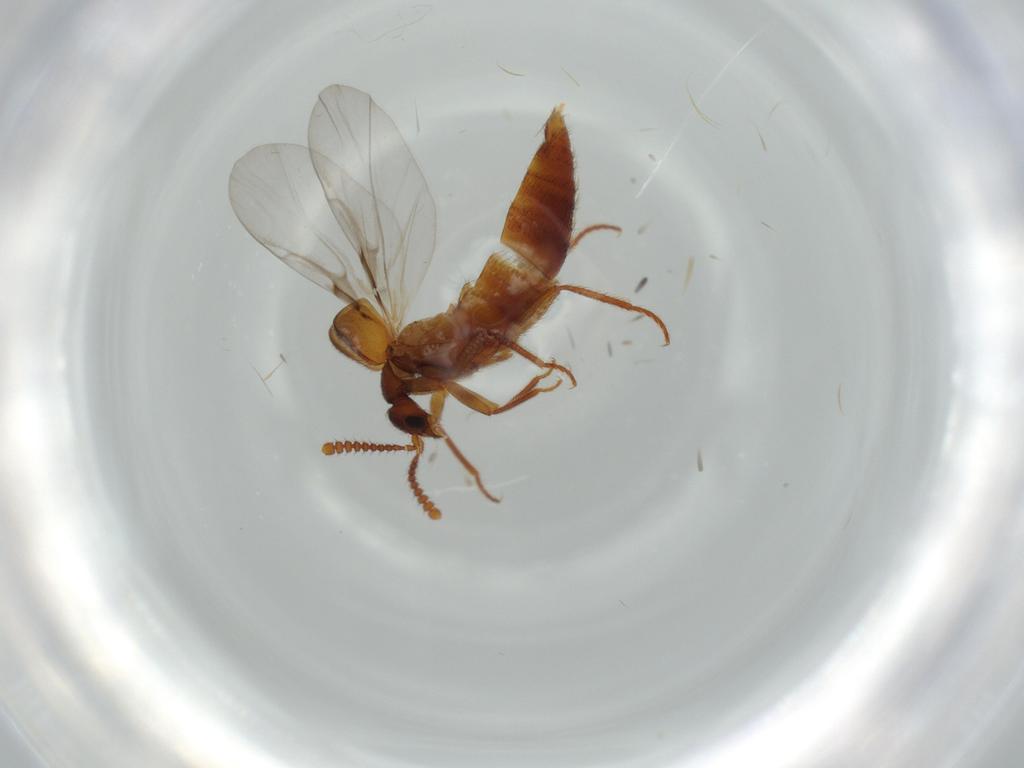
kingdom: Animalia
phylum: Arthropoda
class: Insecta
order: Coleoptera
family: Staphylinidae
